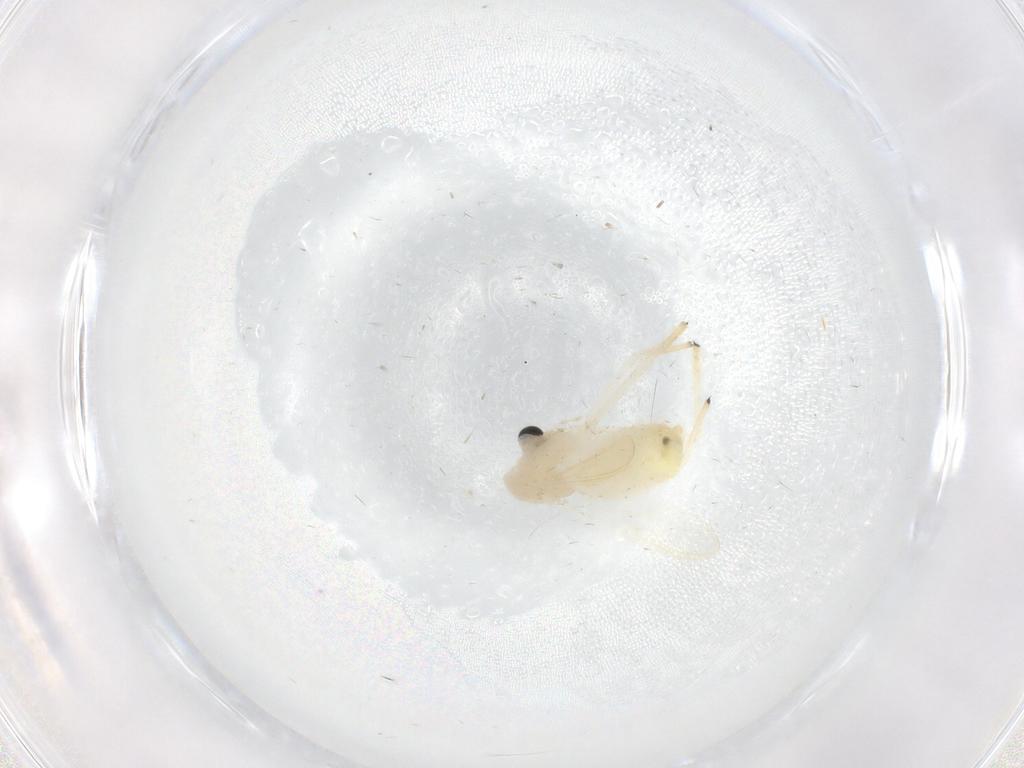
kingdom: Animalia
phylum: Arthropoda
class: Insecta
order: Diptera
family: Chironomidae
